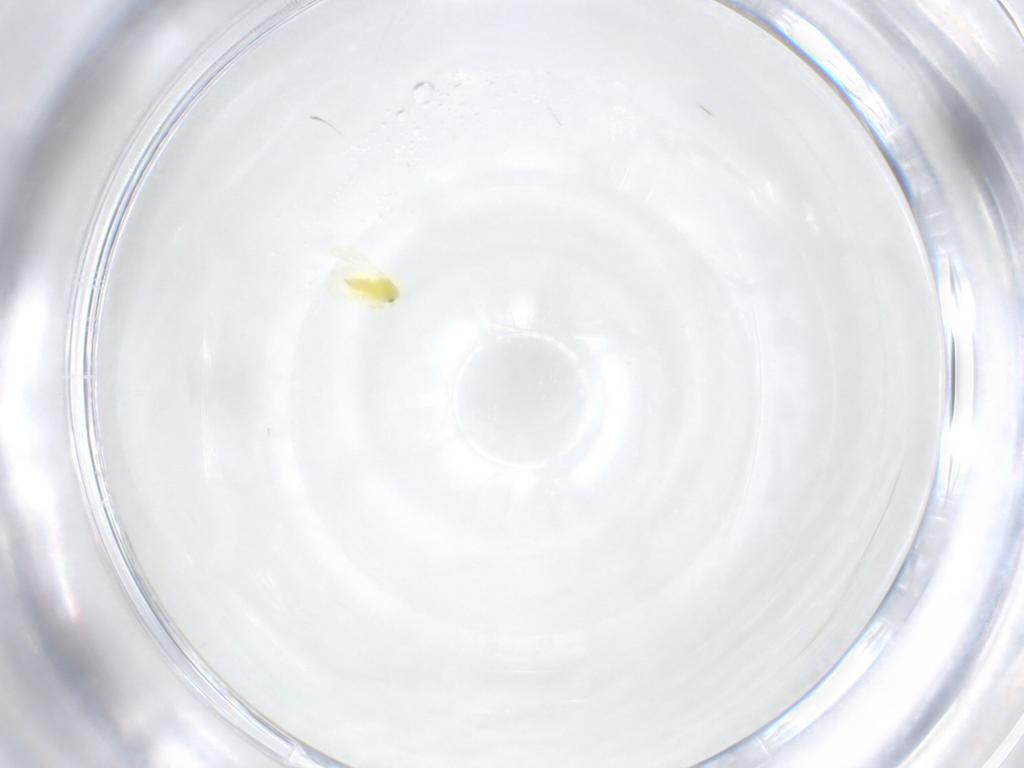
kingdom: Animalia
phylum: Arthropoda
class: Insecta
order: Hemiptera
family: Aleyrodidae
